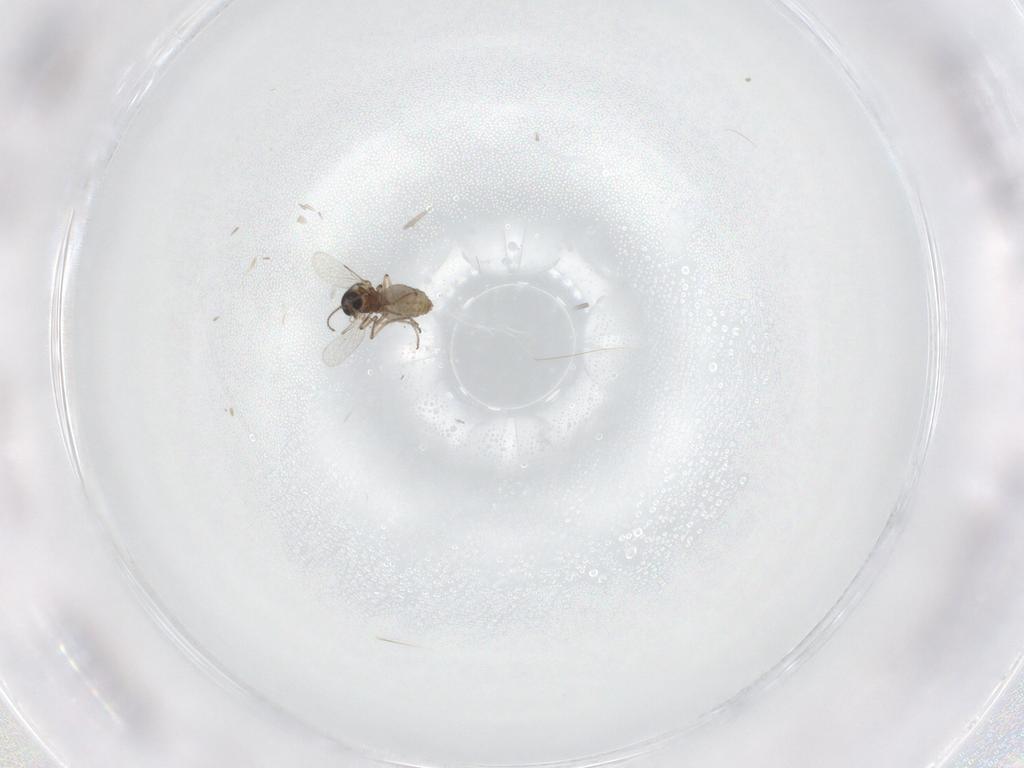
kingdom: Animalia
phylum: Arthropoda
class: Insecta
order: Diptera
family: Ceratopogonidae
